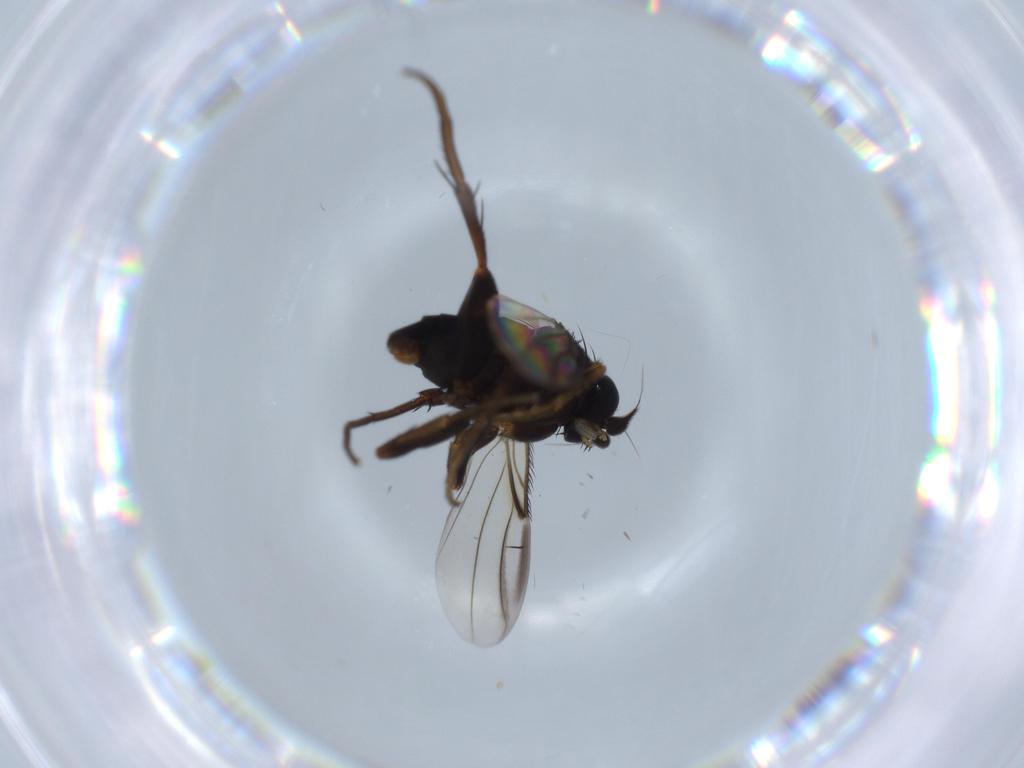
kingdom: Animalia
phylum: Arthropoda
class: Insecta
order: Diptera
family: Phoridae
